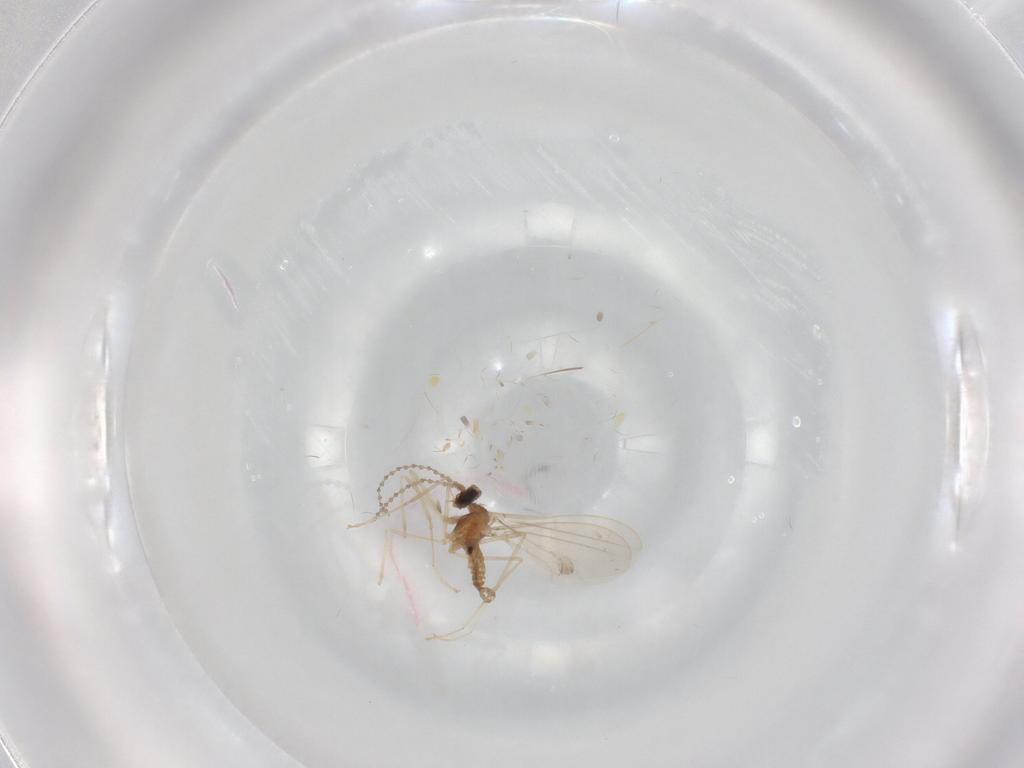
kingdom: Animalia
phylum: Arthropoda
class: Insecta
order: Diptera
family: Cecidomyiidae
